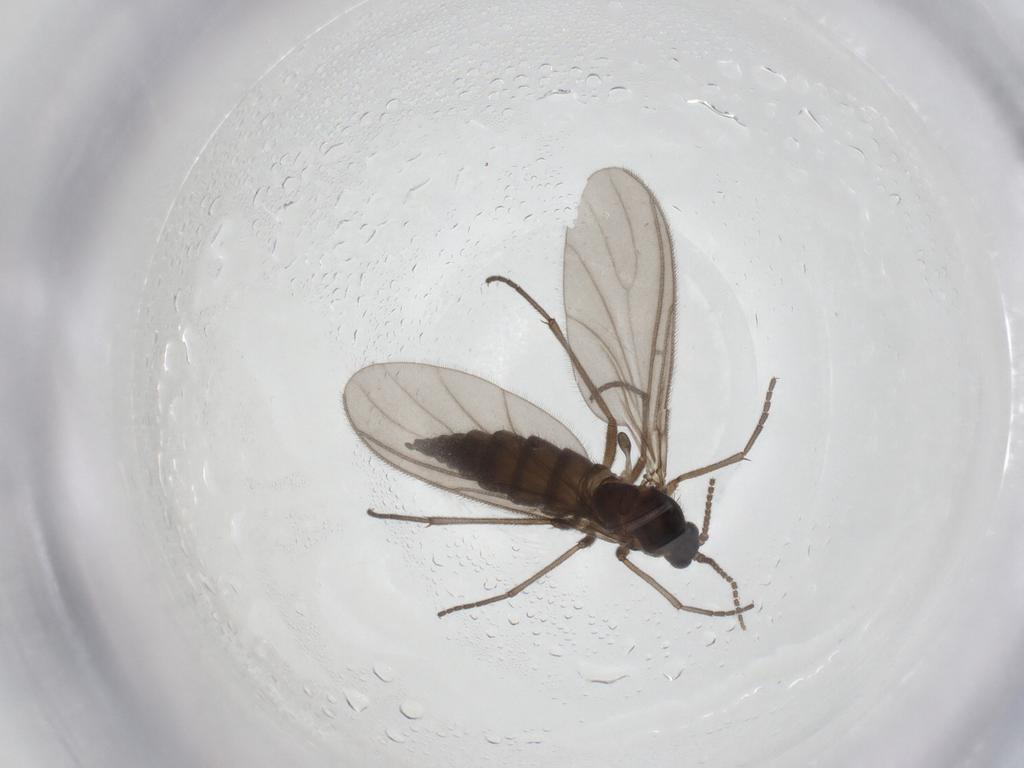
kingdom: Animalia
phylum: Arthropoda
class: Insecta
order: Diptera
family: Sciaridae
